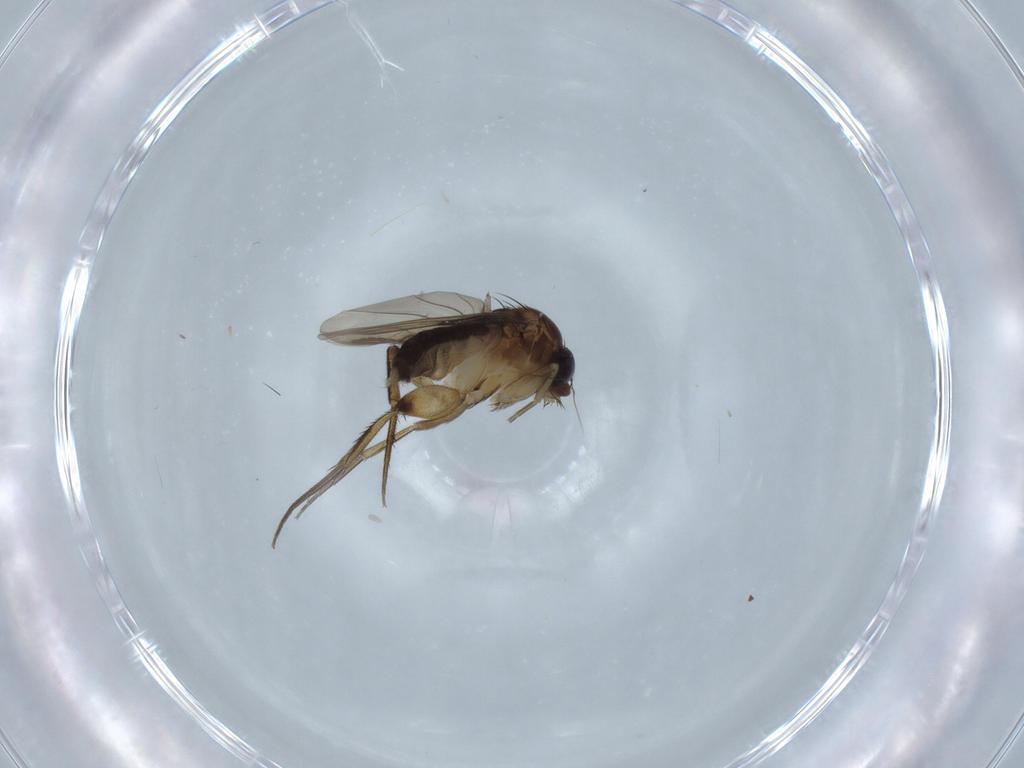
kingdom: Animalia
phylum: Arthropoda
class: Insecta
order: Diptera
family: Phoridae
